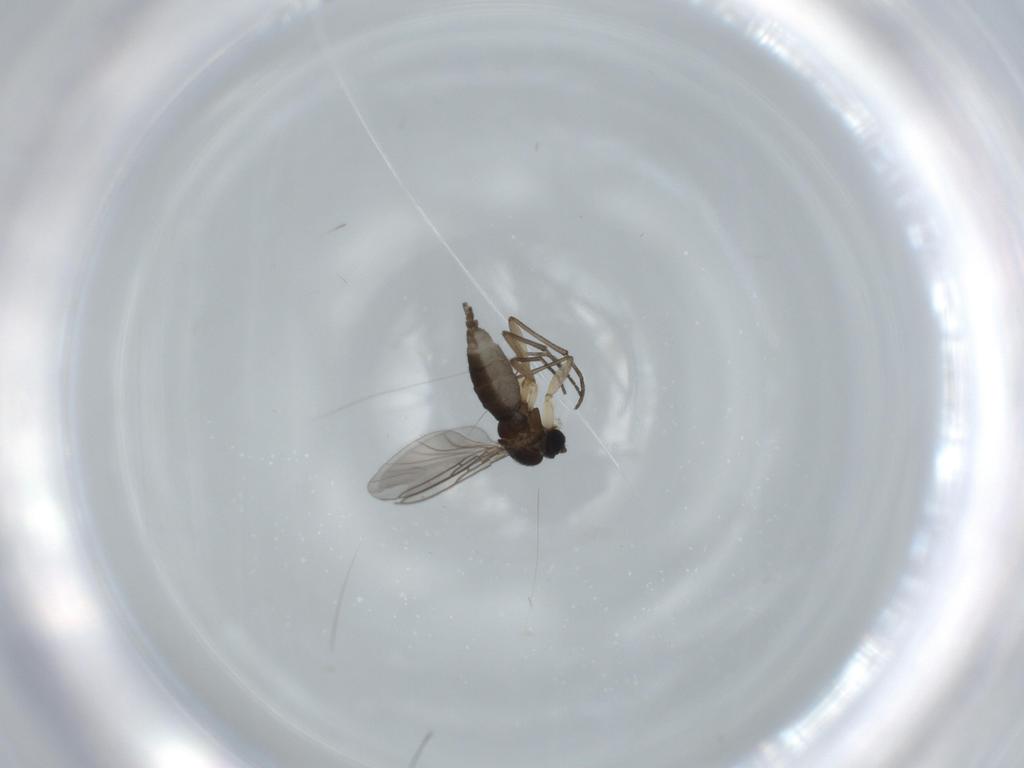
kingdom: Animalia
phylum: Arthropoda
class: Insecta
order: Diptera
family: Sciaridae
